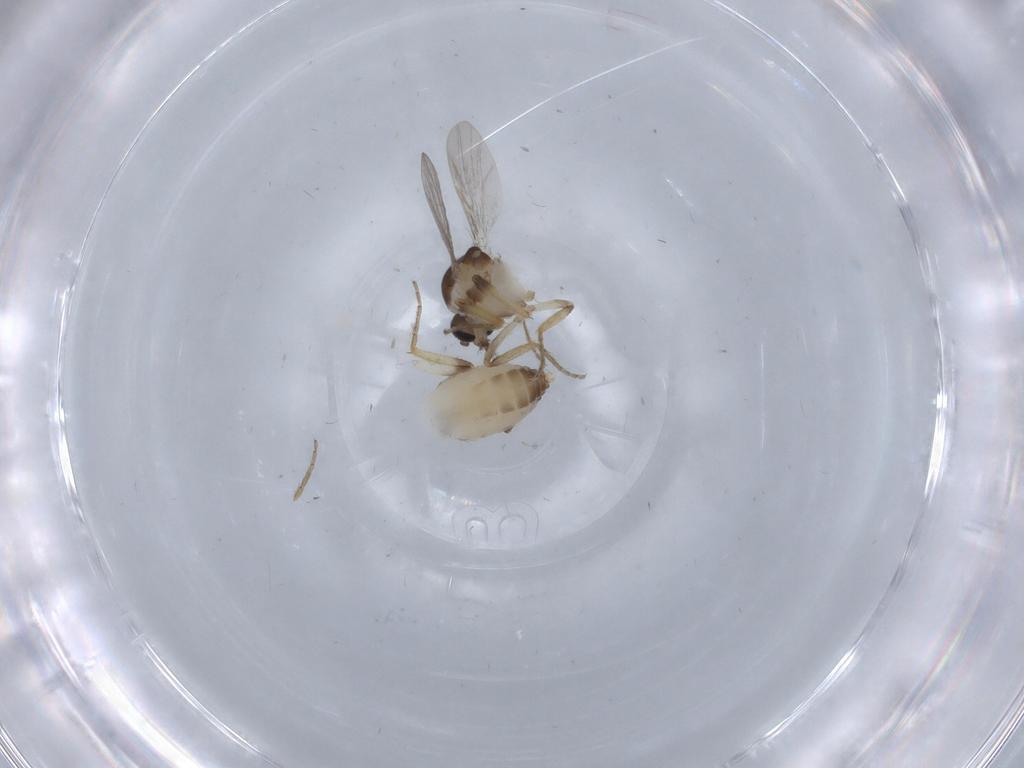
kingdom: Animalia
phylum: Arthropoda
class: Insecta
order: Diptera
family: Ceratopogonidae
